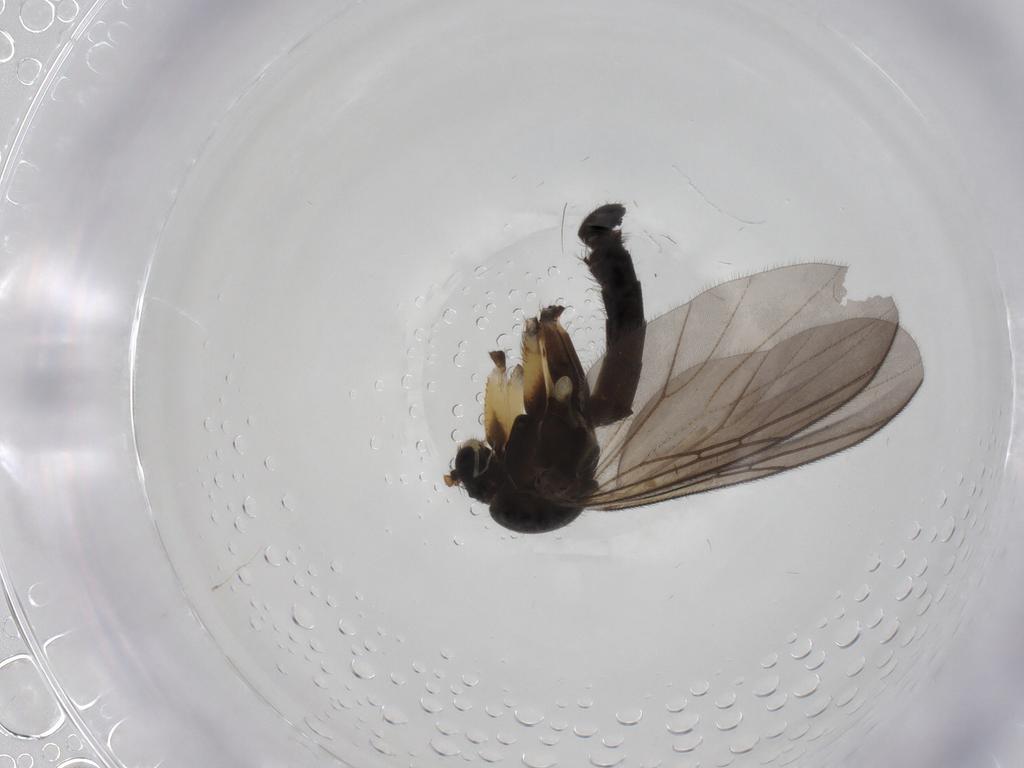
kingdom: Animalia
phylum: Arthropoda
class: Insecta
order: Diptera
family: Mycetophilidae
